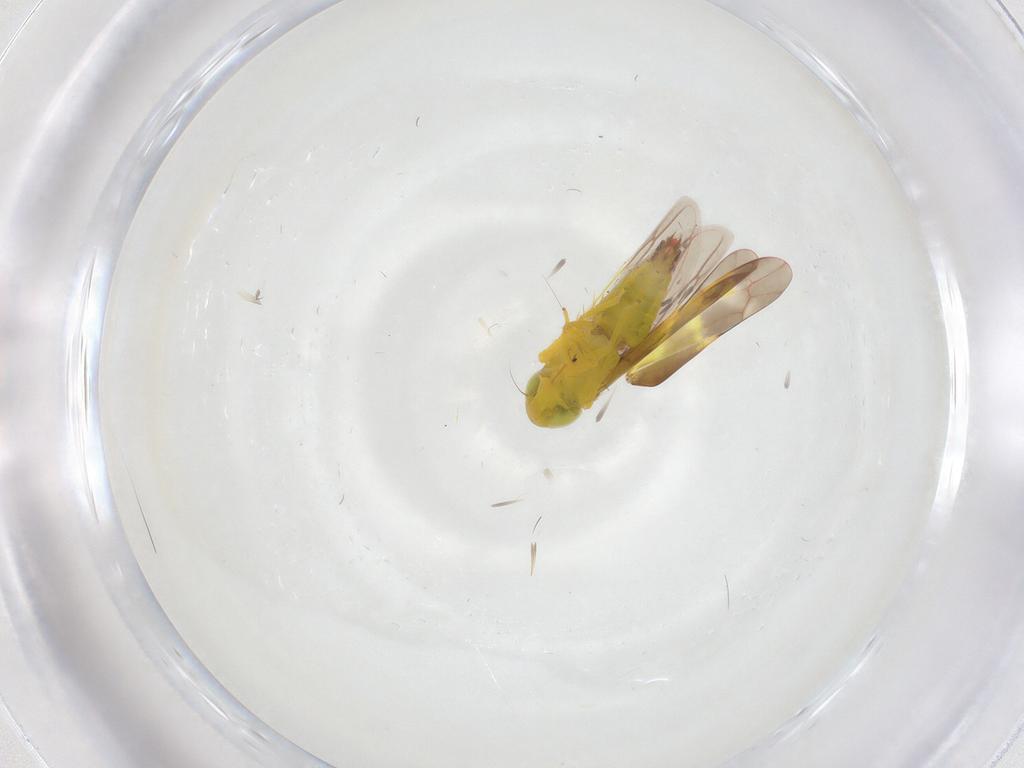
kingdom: Animalia
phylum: Arthropoda
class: Insecta
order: Hemiptera
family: Cicadellidae
